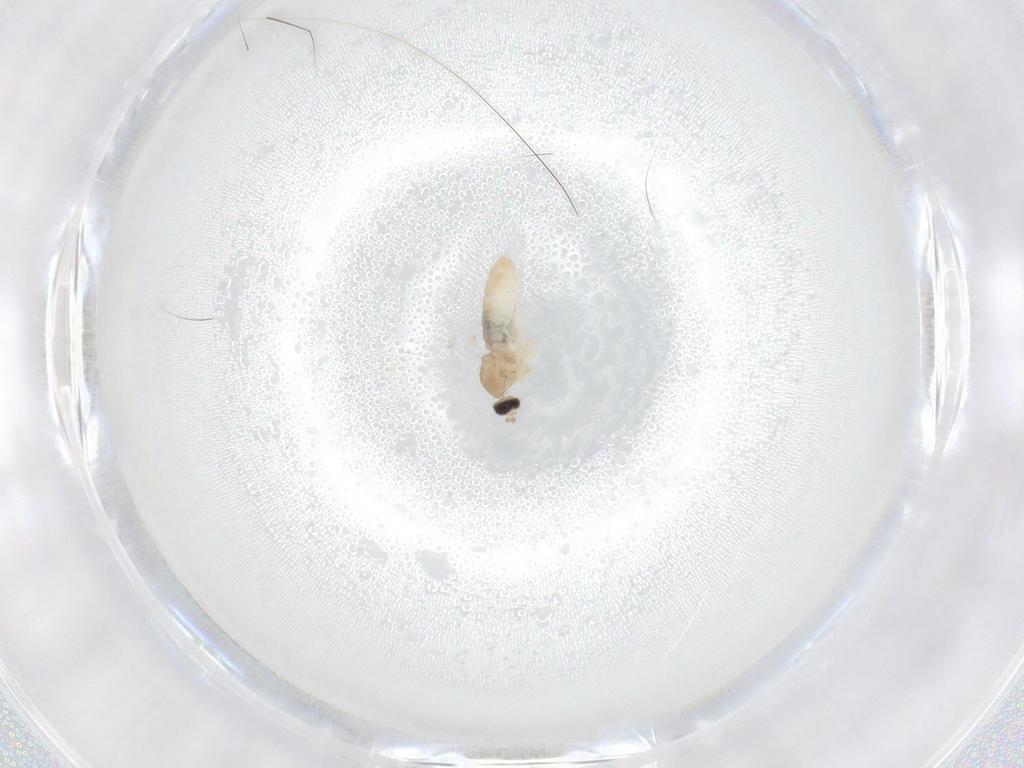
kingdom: Animalia
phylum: Arthropoda
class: Insecta
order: Diptera
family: Cecidomyiidae
